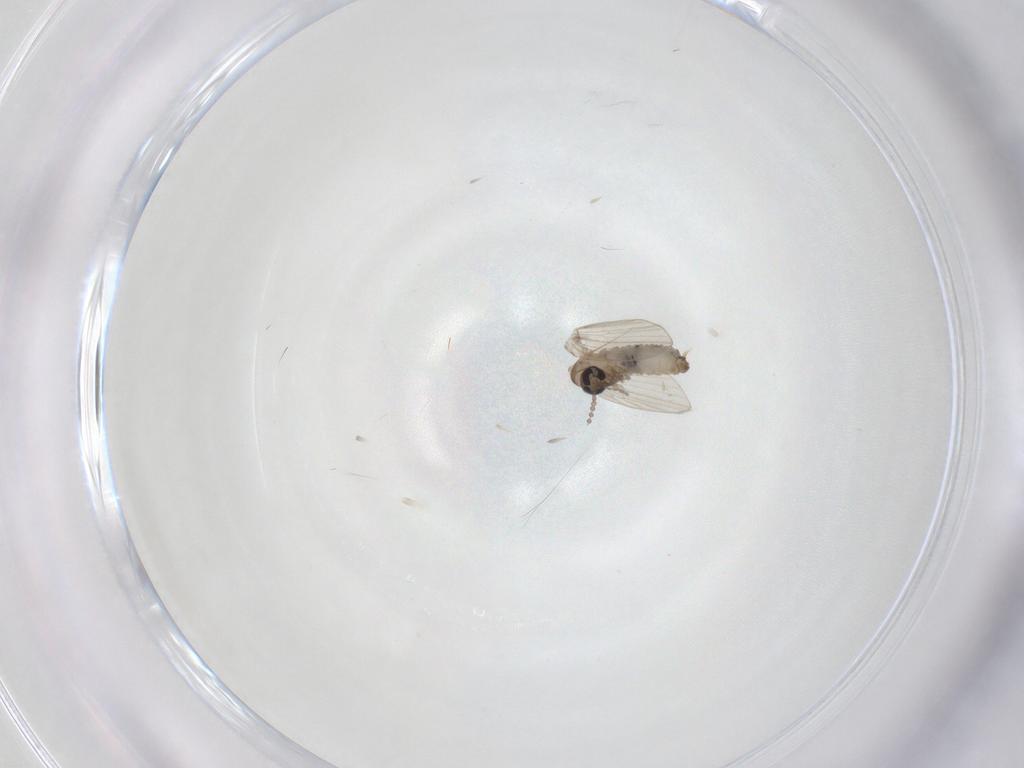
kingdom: Animalia
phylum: Arthropoda
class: Insecta
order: Diptera
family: Psychodidae
